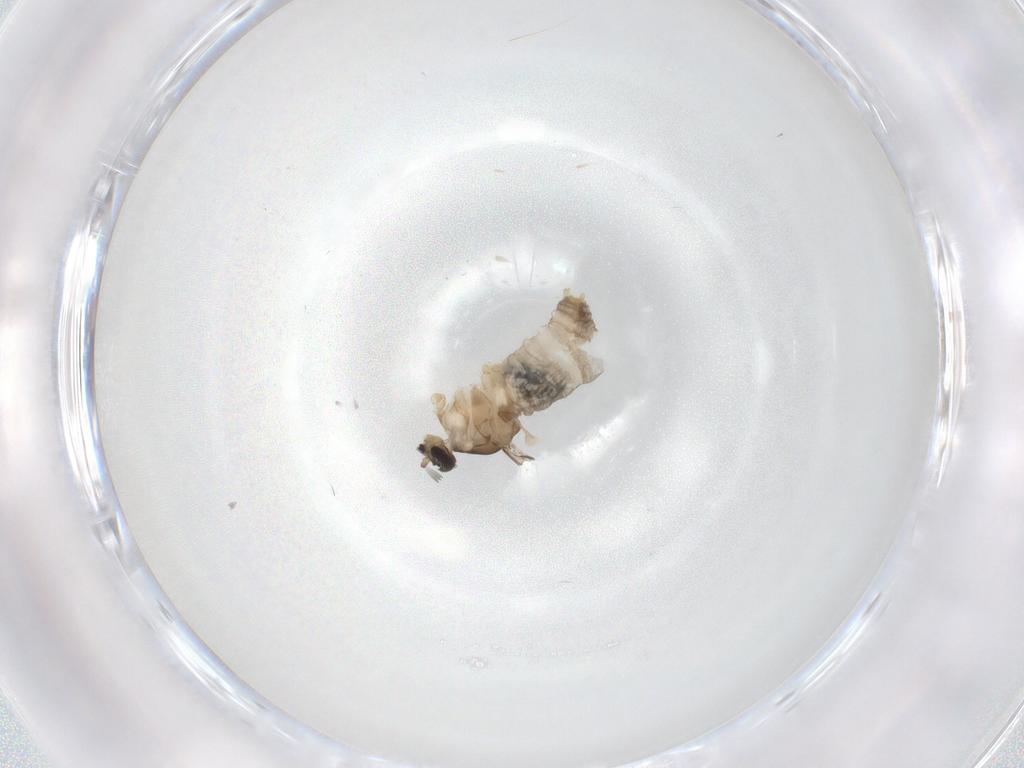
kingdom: Animalia
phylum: Arthropoda
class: Insecta
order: Diptera
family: Cecidomyiidae
